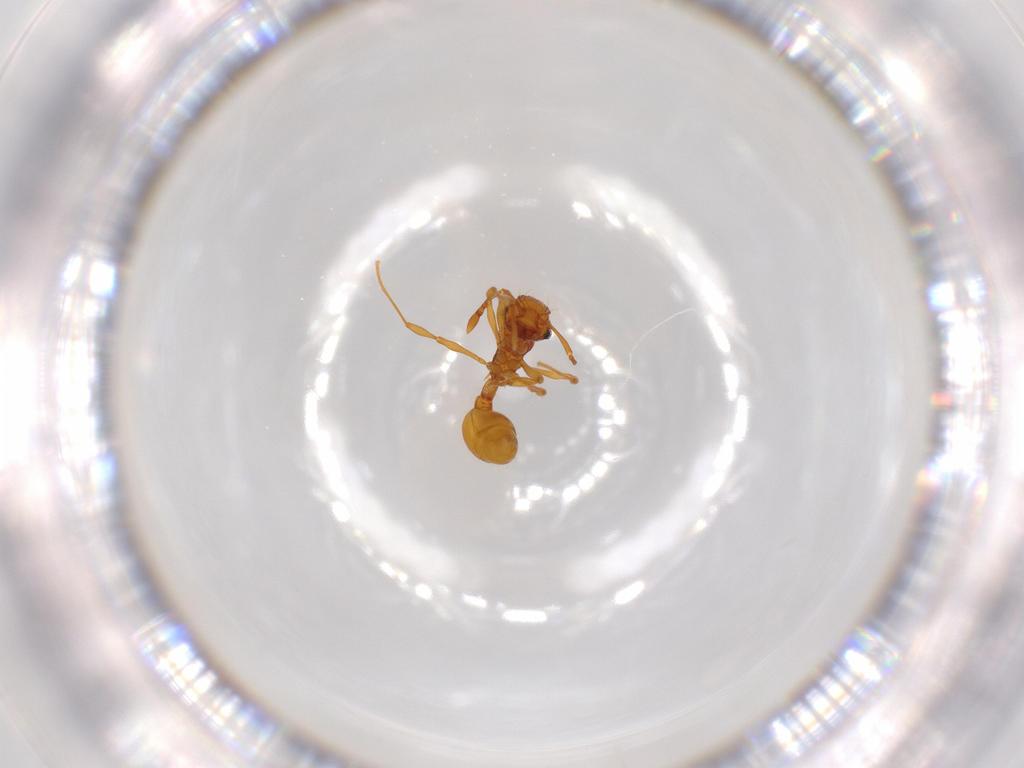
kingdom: Animalia
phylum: Arthropoda
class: Insecta
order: Hymenoptera
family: Formicidae
